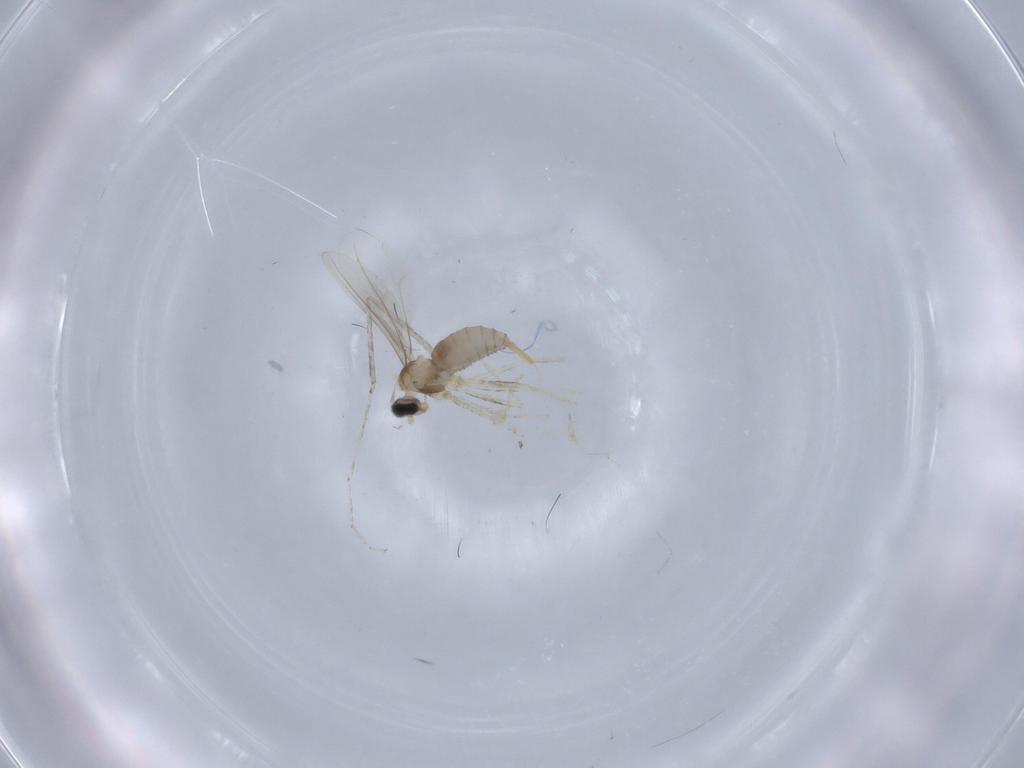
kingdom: Animalia
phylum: Arthropoda
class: Insecta
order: Diptera
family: Cecidomyiidae
